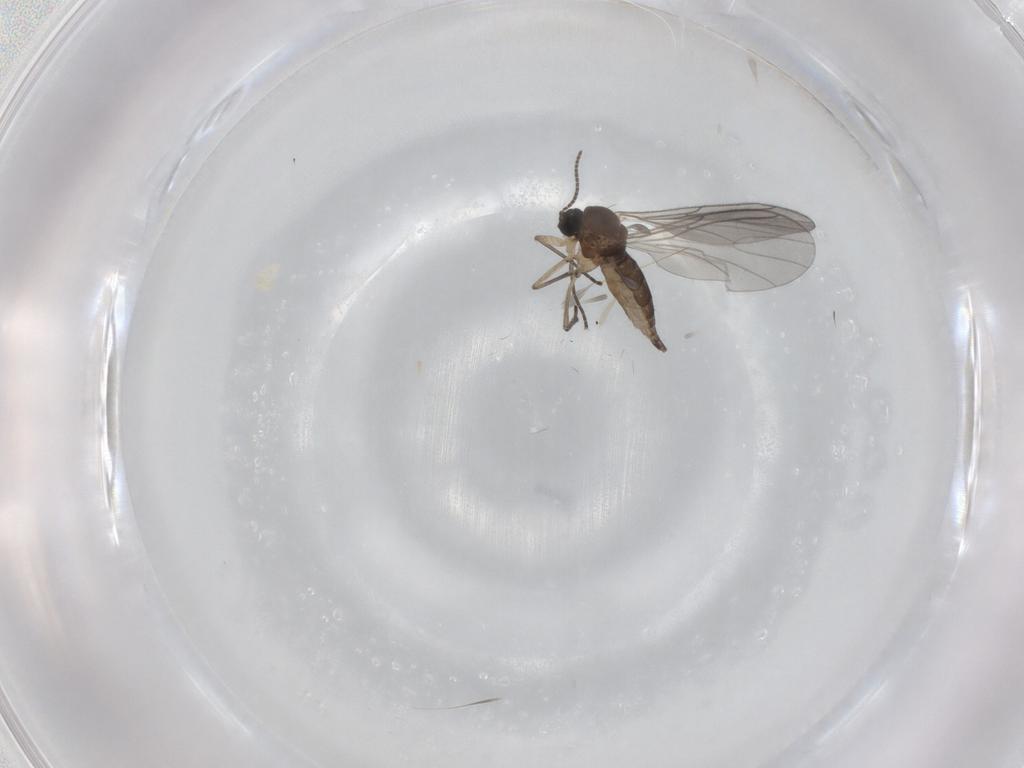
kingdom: Animalia
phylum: Arthropoda
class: Insecta
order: Diptera
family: Sciaridae
